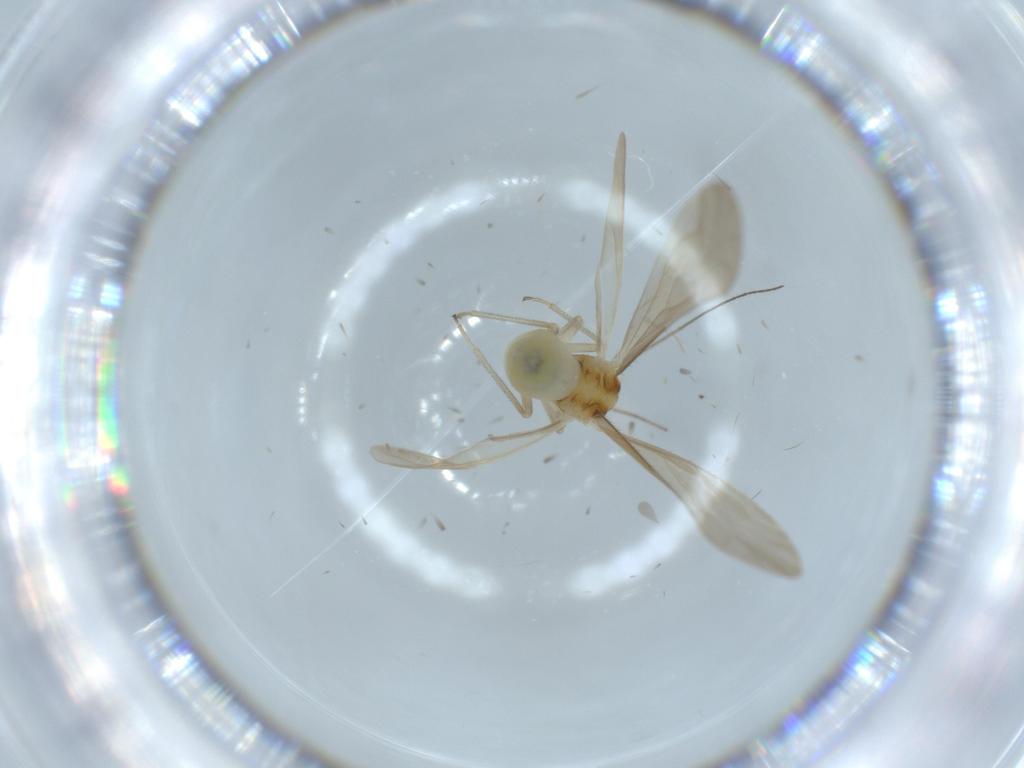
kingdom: Animalia
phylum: Arthropoda
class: Insecta
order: Psocodea
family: Caeciliusidae
